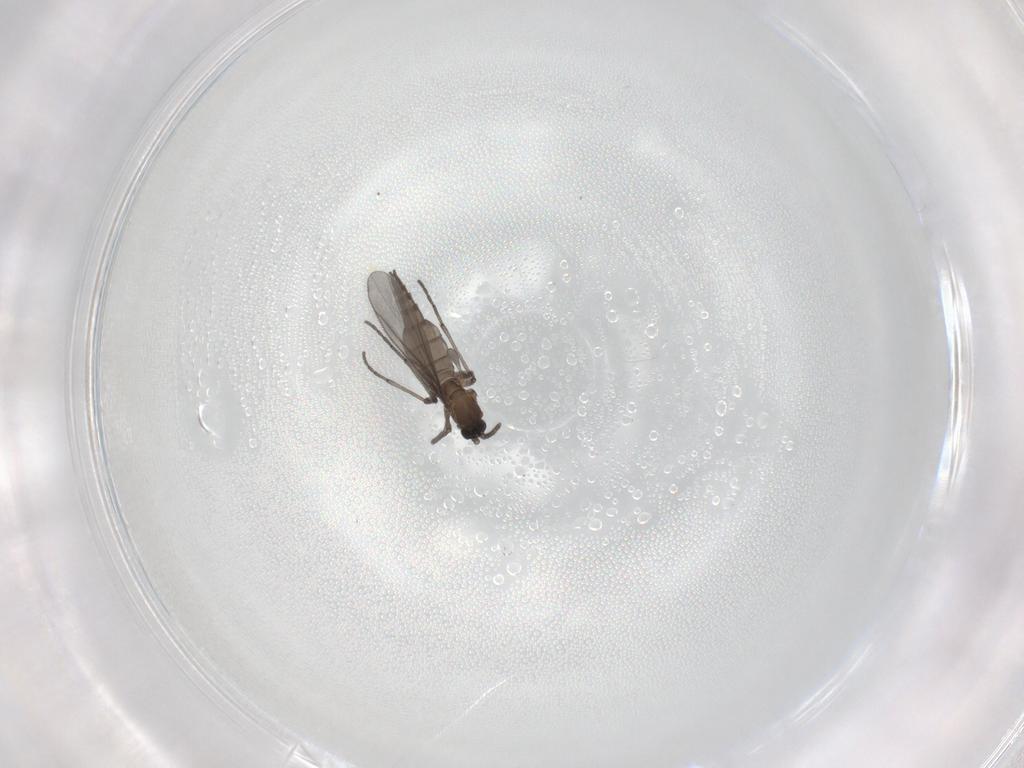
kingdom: Animalia
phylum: Arthropoda
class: Insecta
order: Diptera
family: Sciaridae
